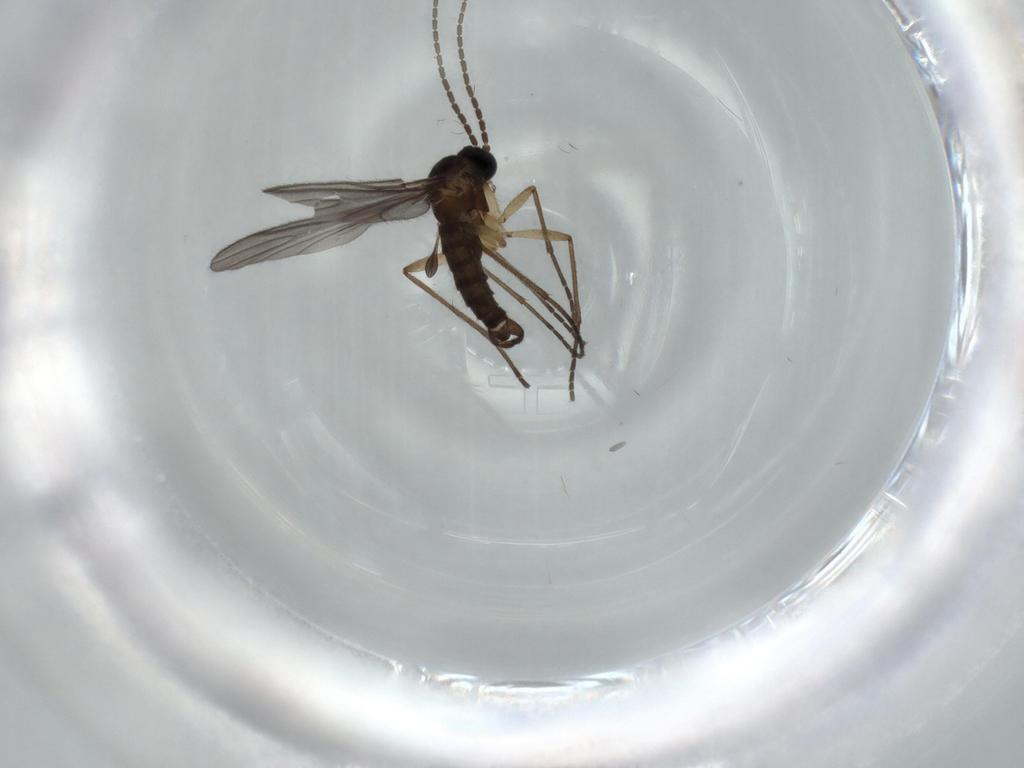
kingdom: Animalia
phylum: Arthropoda
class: Insecta
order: Diptera
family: Sciaridae
